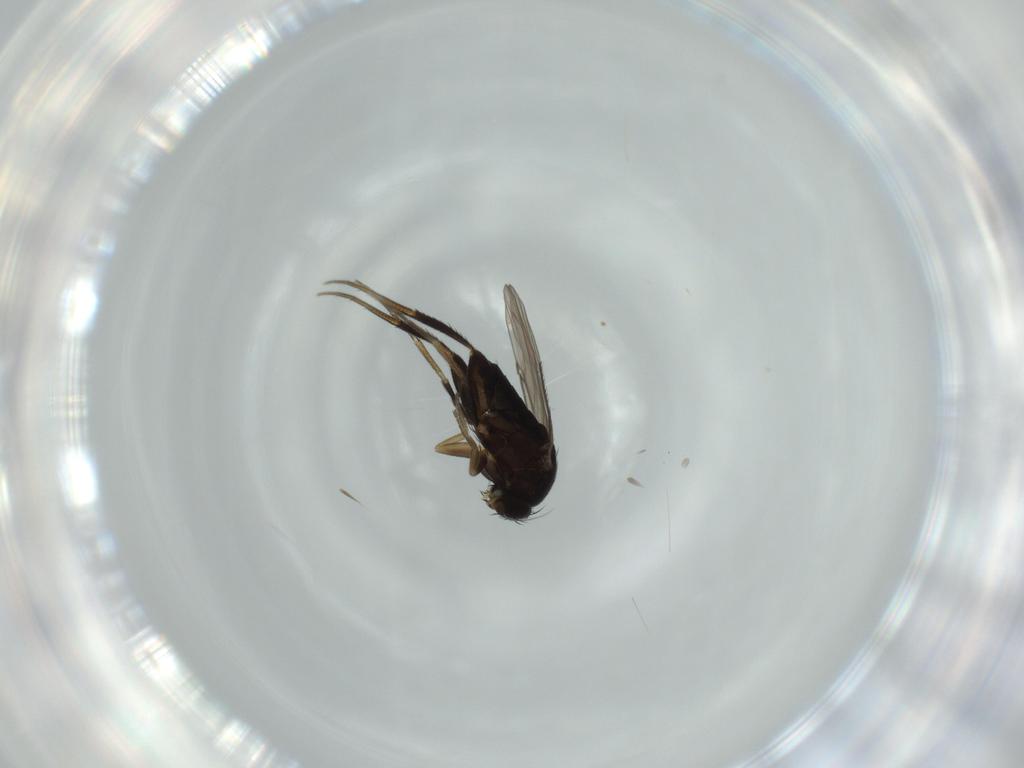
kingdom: Animalia
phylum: Arthropoda
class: Insecta
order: Diptera
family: Phoridae
